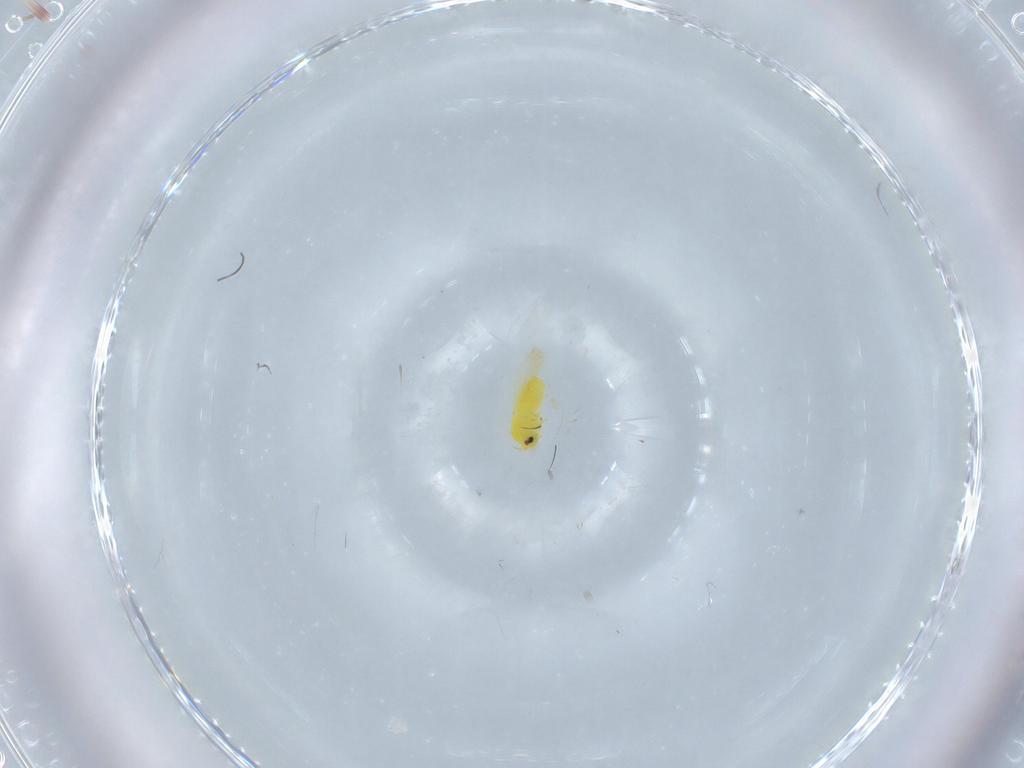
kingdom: Animalia
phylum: Arthropoda
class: Insecta
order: Hemiptera
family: Aleyrodidae
